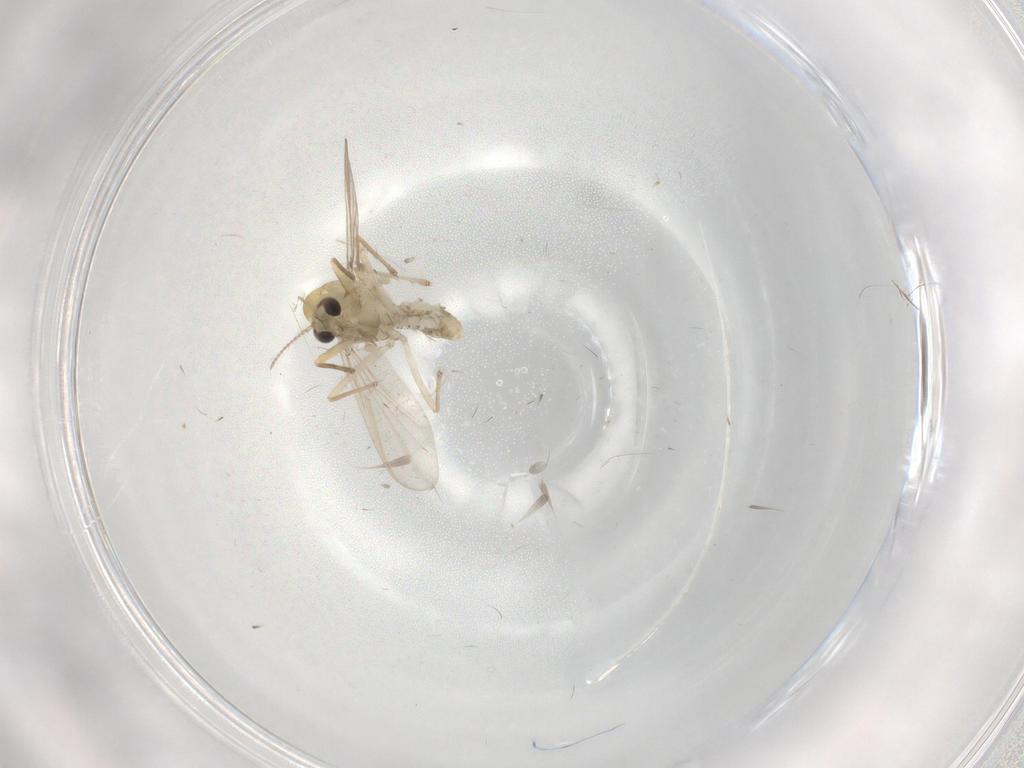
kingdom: Animalia
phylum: Arthropoda
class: Insecta
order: Diptera
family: Chironomidae
